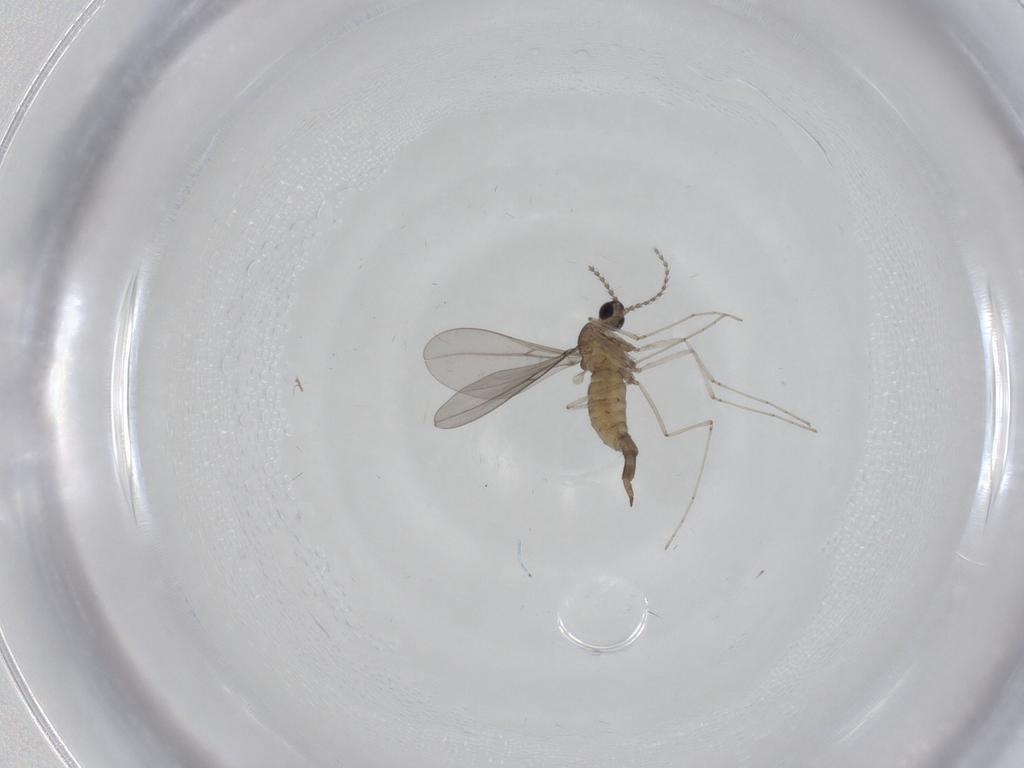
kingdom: Animalia
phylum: Arthropoda
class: Insecta
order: Diptera
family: Cecidomyiidae
